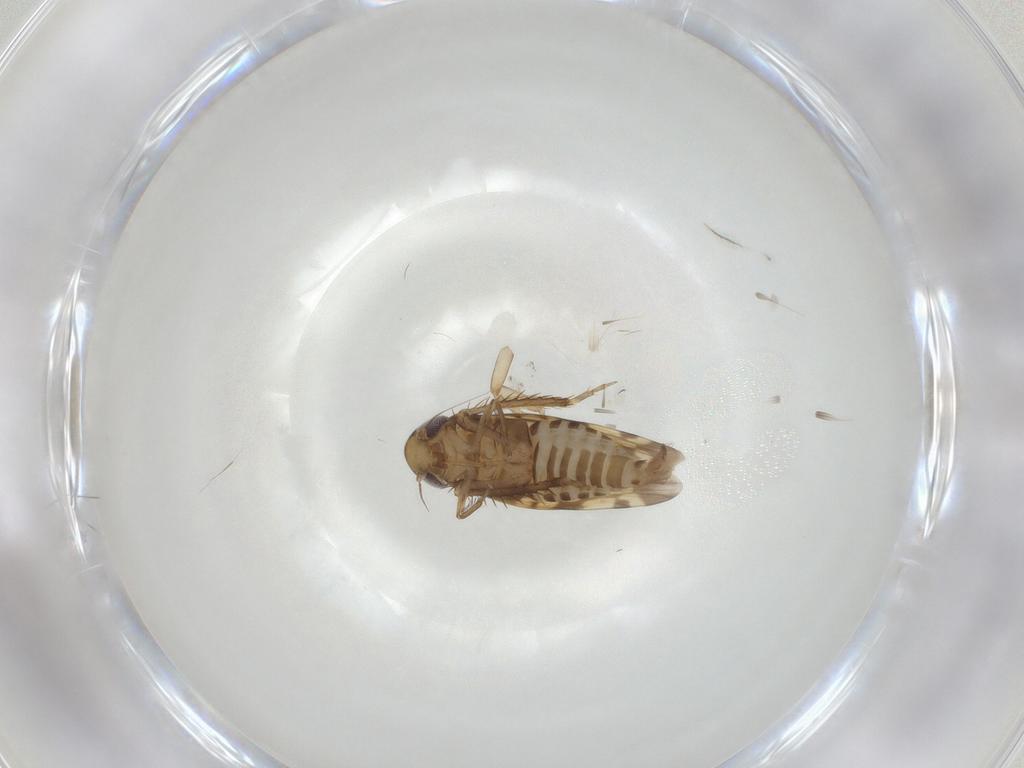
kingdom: Animalia
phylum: Arthropoda
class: Insecta
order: Hemiptera
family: Cicadellidae
